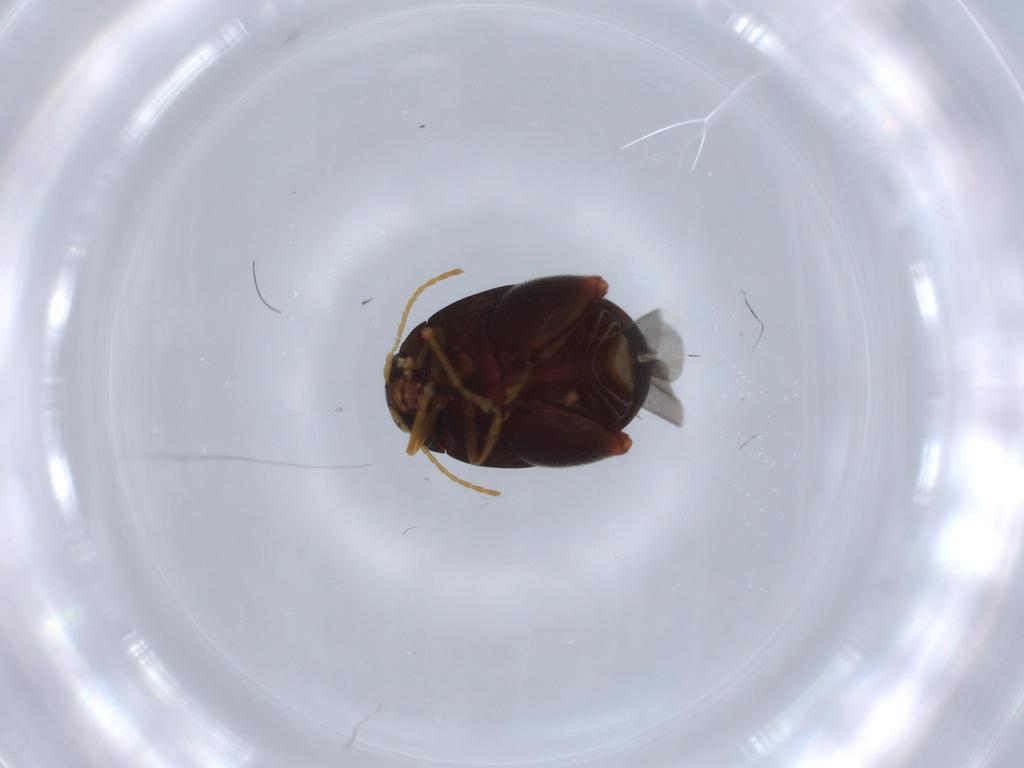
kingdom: Animalia
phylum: Arthropoda
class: Insecta
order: Coleoptera
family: Chrysomelidae
